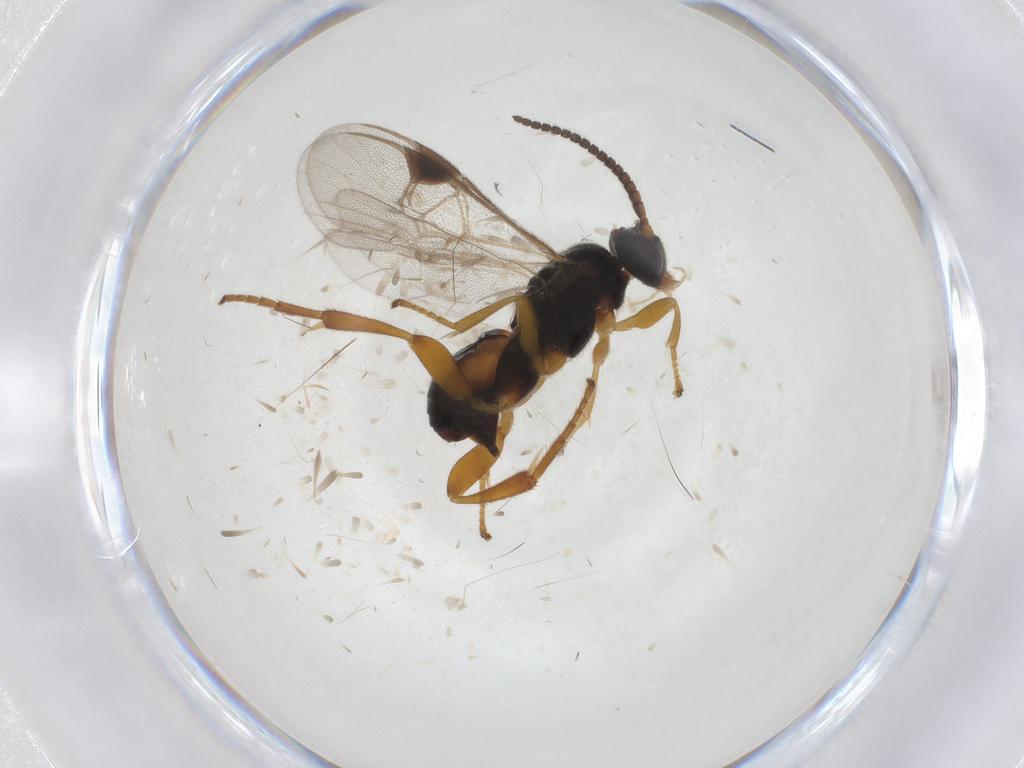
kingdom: Animalia
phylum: Arthropoda
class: Insecta
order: Hymenoptera
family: Braconidae
